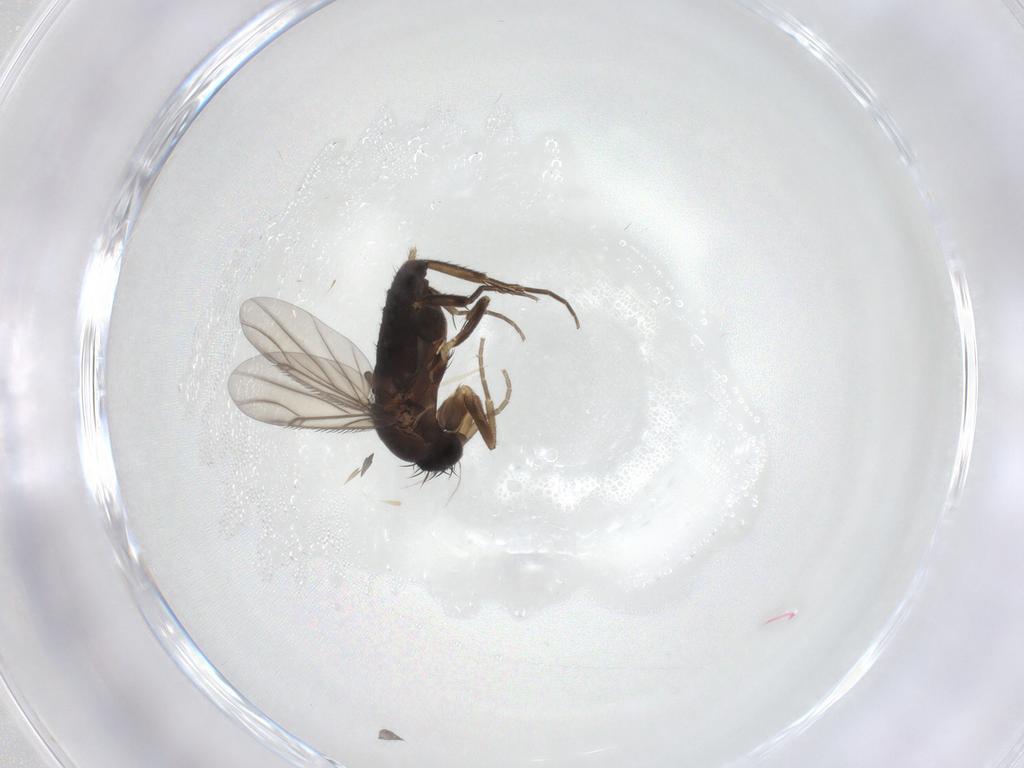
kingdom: Animalia
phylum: Arthropoda
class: Insecta
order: Diptera
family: Phoridae
